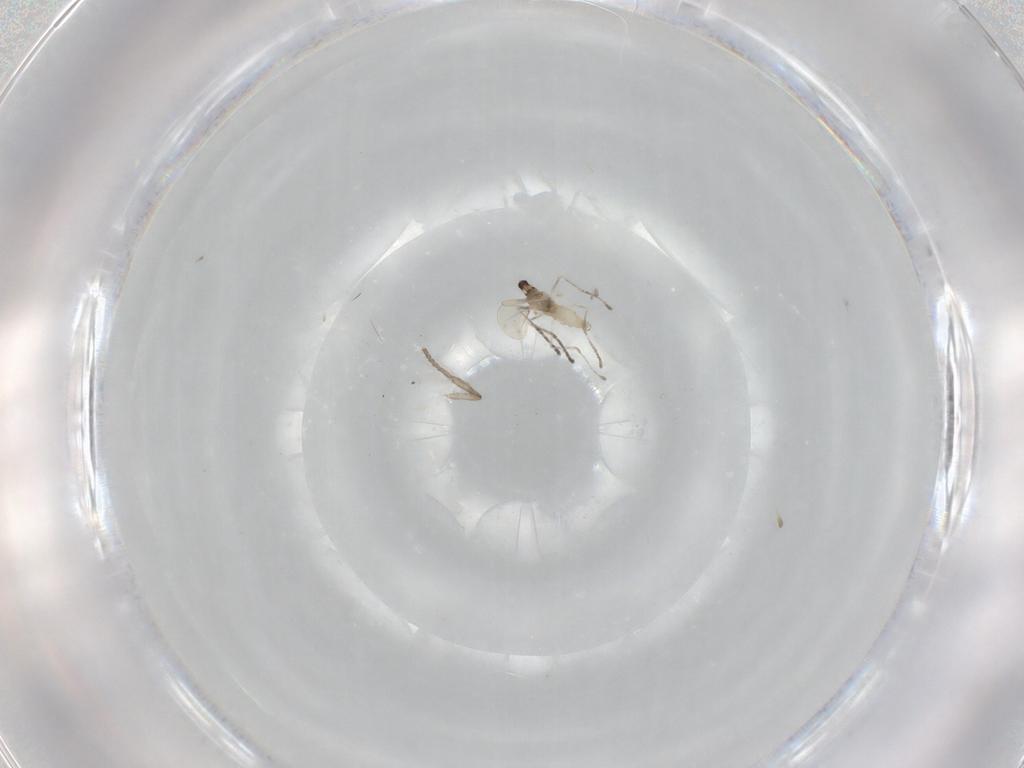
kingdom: Animalia
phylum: Arthropoda
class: Insecta
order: Diptera
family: Cecidomyiidae
